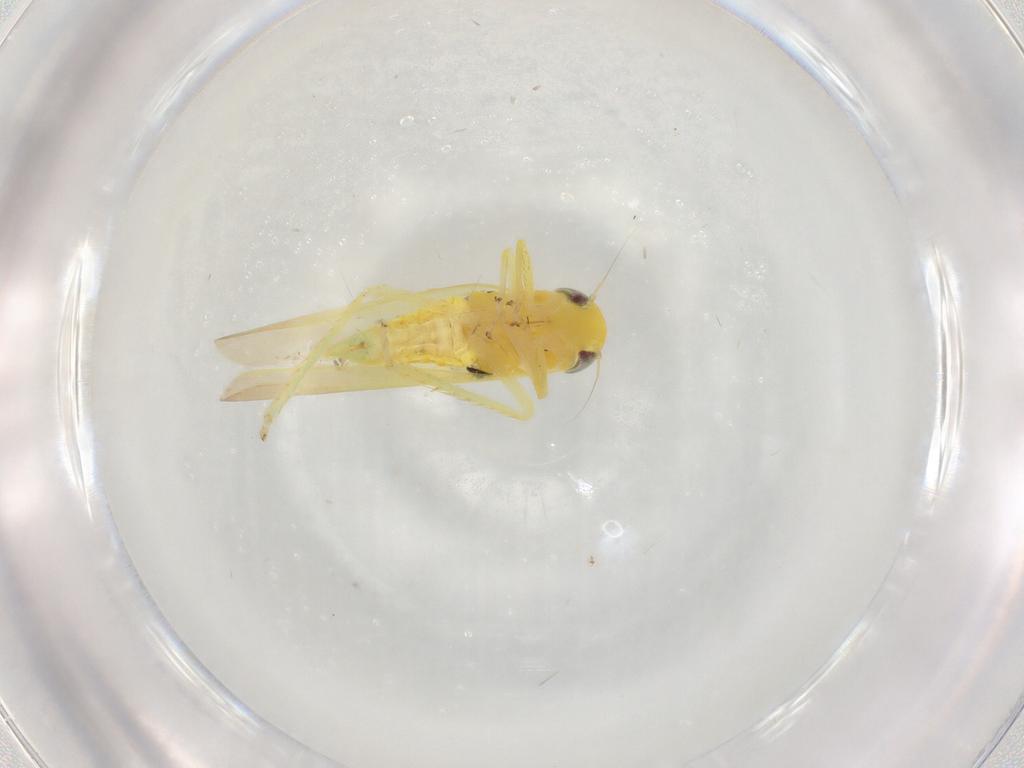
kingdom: Animalia
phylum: Arthropoda
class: Insecta
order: Hemiptera
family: Cicadellidae
